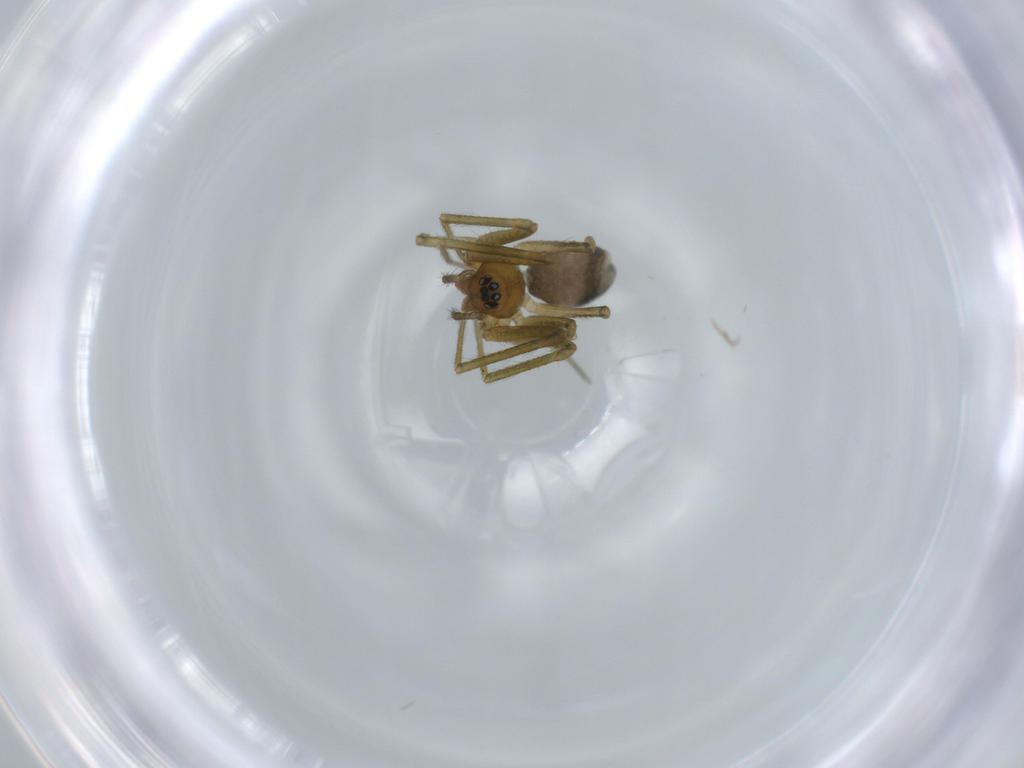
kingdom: Animalia
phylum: Arthropoda
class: Arachnida
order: Araneae
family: Linyphiidae
